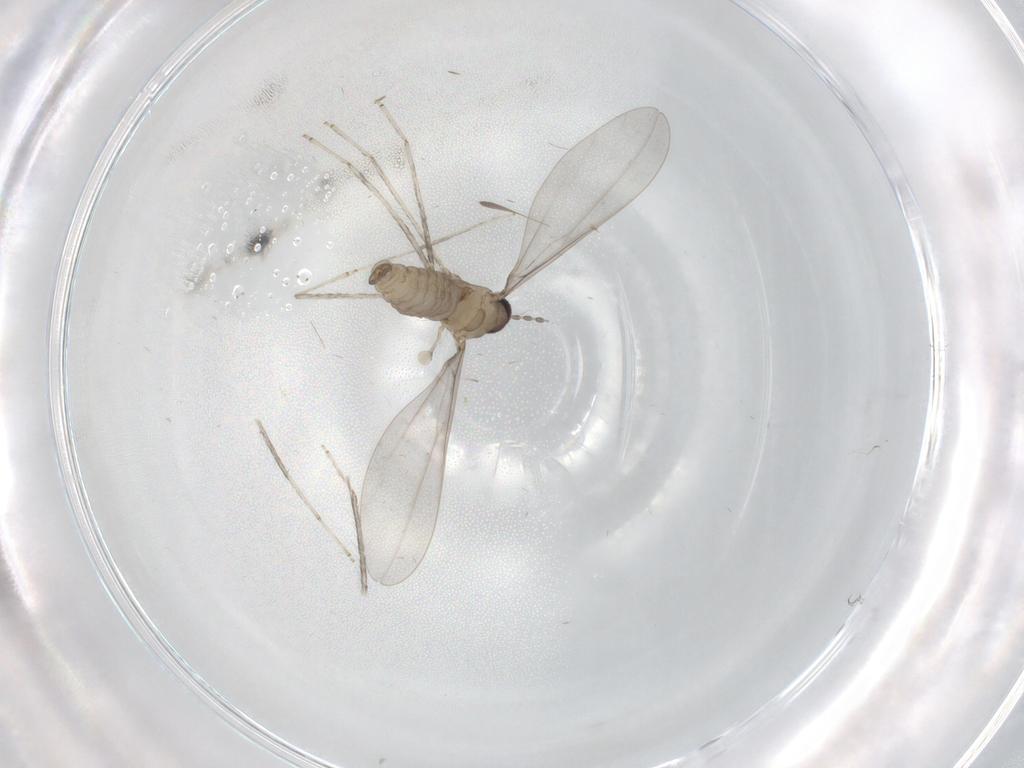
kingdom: Animalia
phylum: Arthropoda
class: Insecta
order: Diptera
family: Cecidomyiidae
